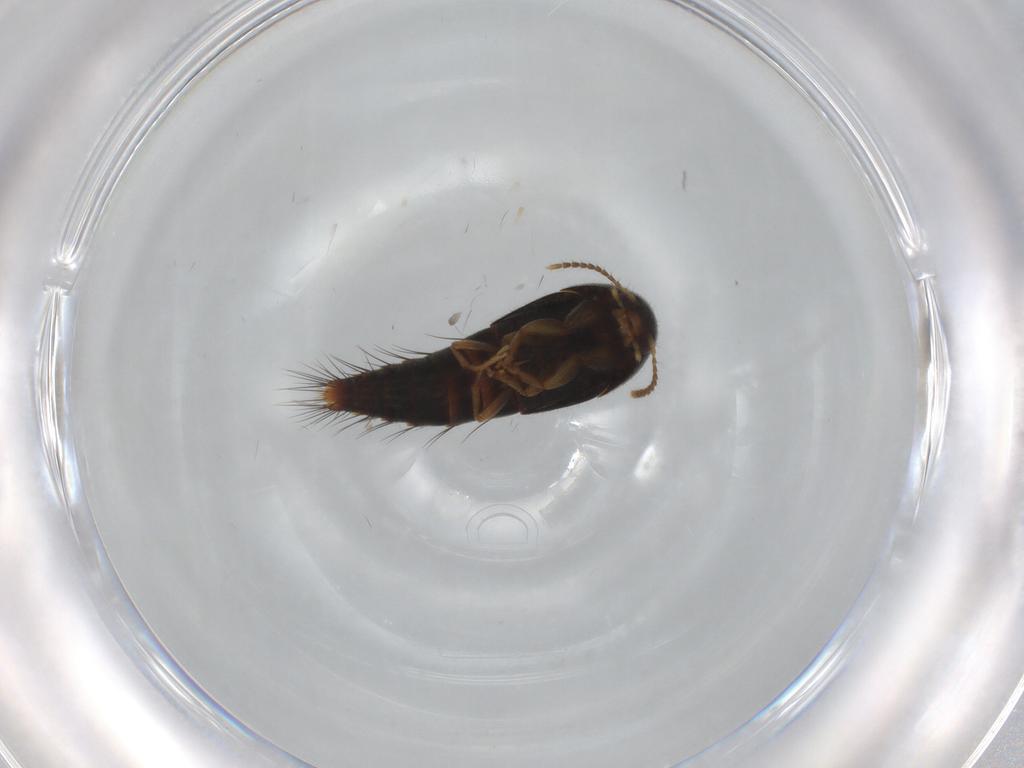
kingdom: Animalia
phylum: Arthropoda
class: Insecta
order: Coleoptera
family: Staphylinidae
